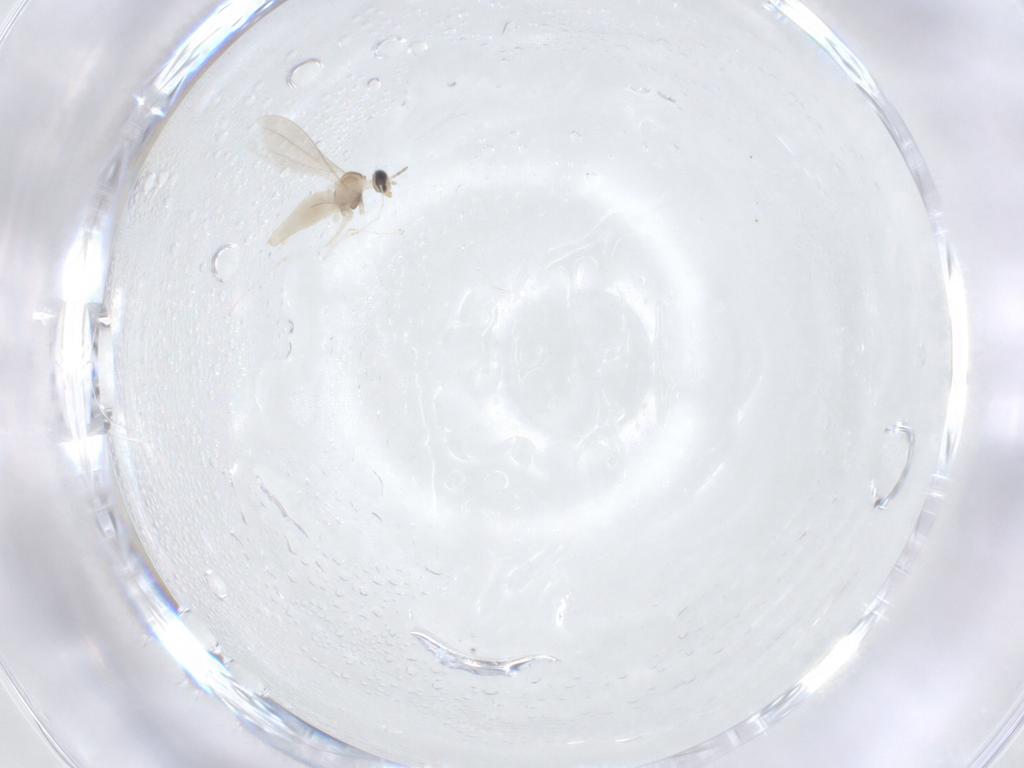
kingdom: Animalia
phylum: Arthropoda
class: Insecta
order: Diptera
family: Cecidomyiidae
